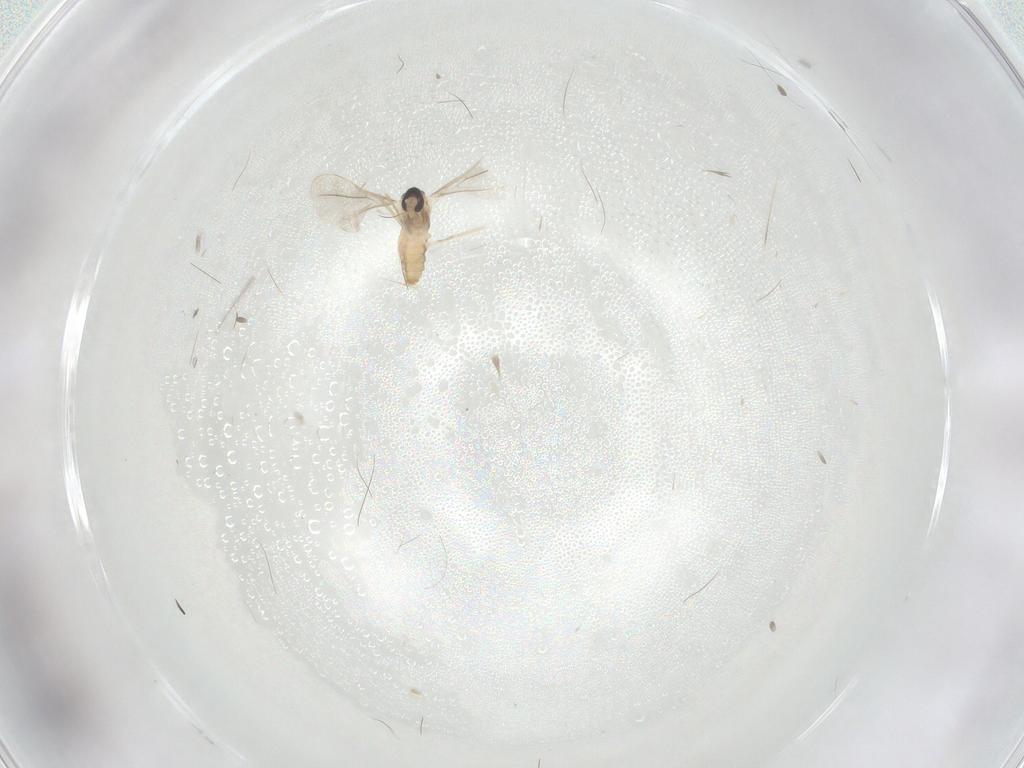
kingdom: Animalia
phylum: Arthropoda
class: Insecta
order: Diptera
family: Cecidomyiidae
